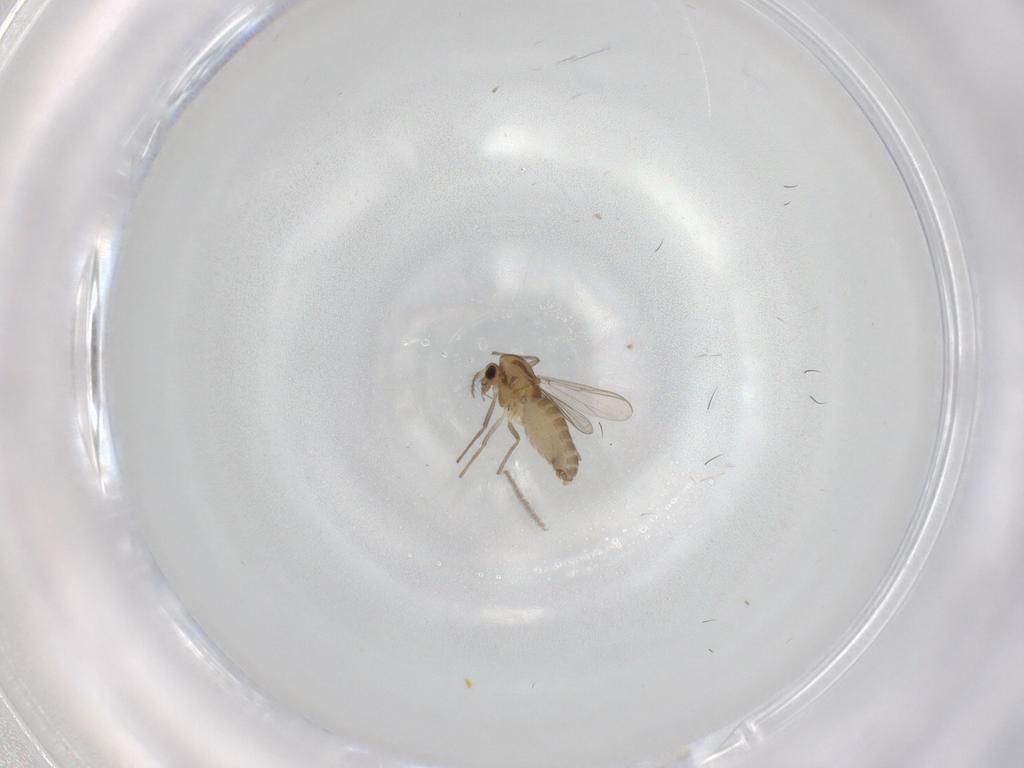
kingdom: Animalia
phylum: Arthropoda
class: Insecta
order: Diptera
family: Chironomidae
